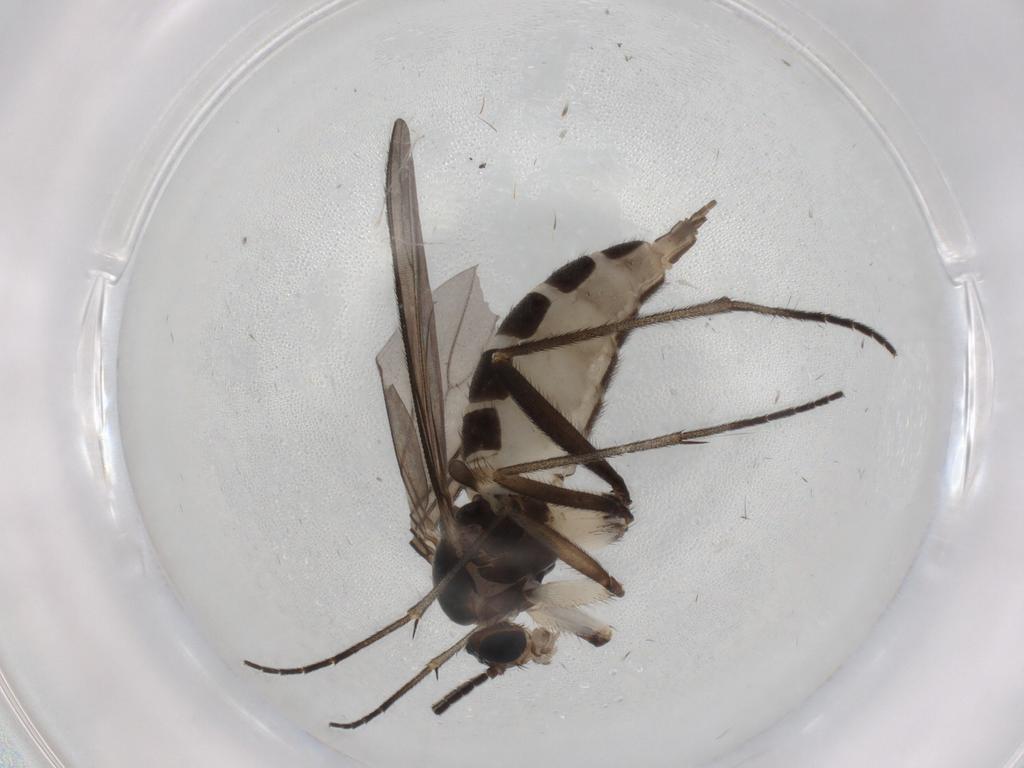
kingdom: Animalia
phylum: Arthropoda
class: Insecta
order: Diptera
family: Sciaridae
